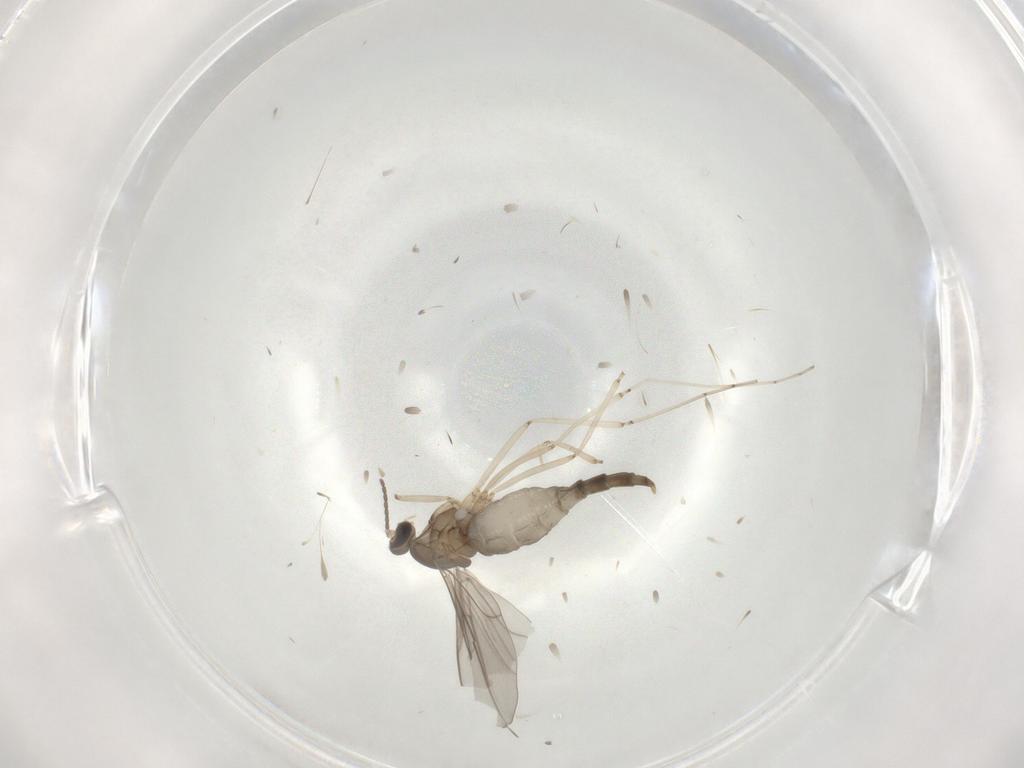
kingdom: Animalia
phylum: Arthropoda
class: Insecta
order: Diptera
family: Cecidomyiidae
